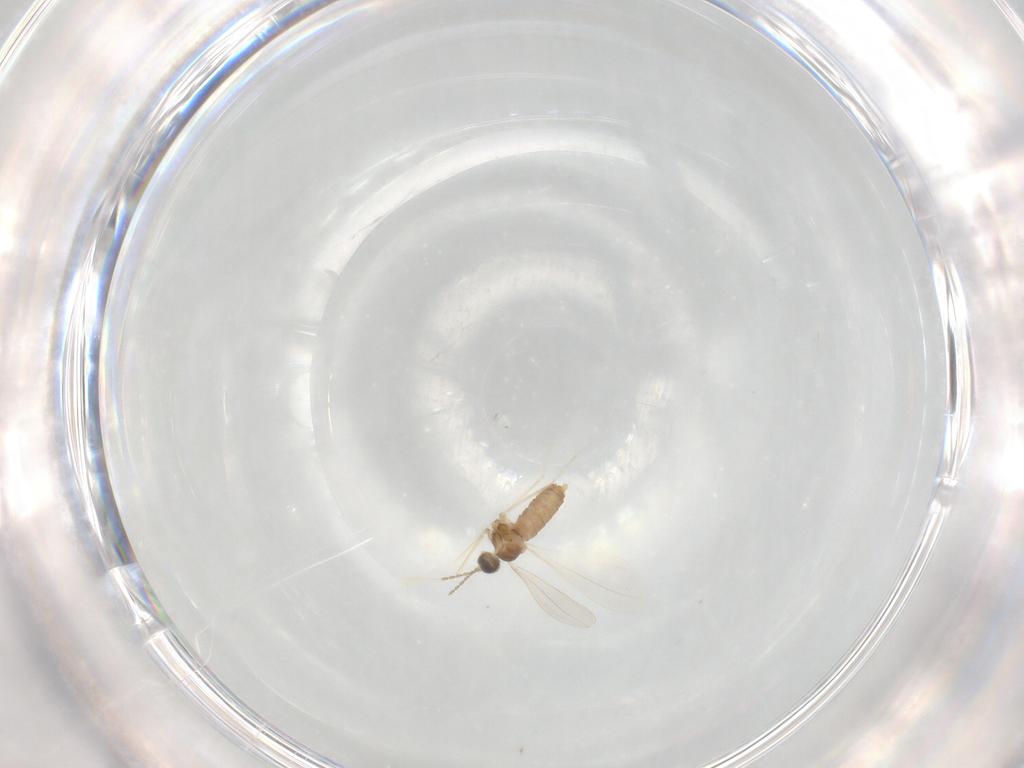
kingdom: Animalia
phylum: Arthropoda
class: Insecta
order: Diptera
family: Cecidomyiidae
